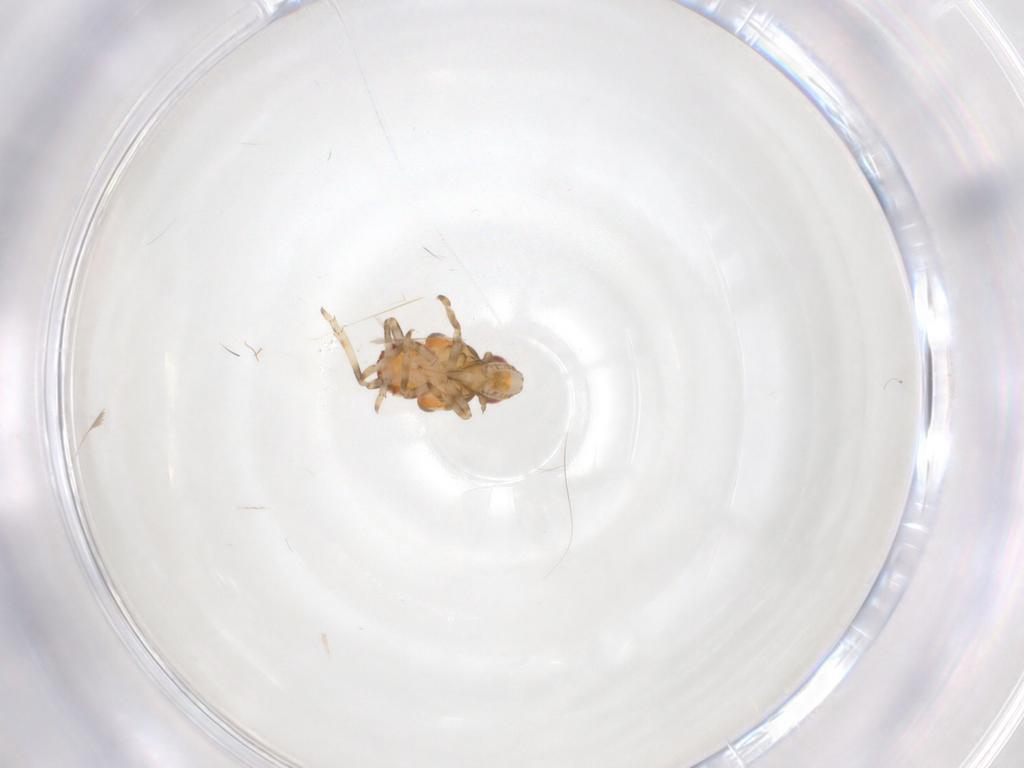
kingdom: Animalia
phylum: Arthropoda
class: Insecta
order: Hemiptera
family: Tropiduchidae
